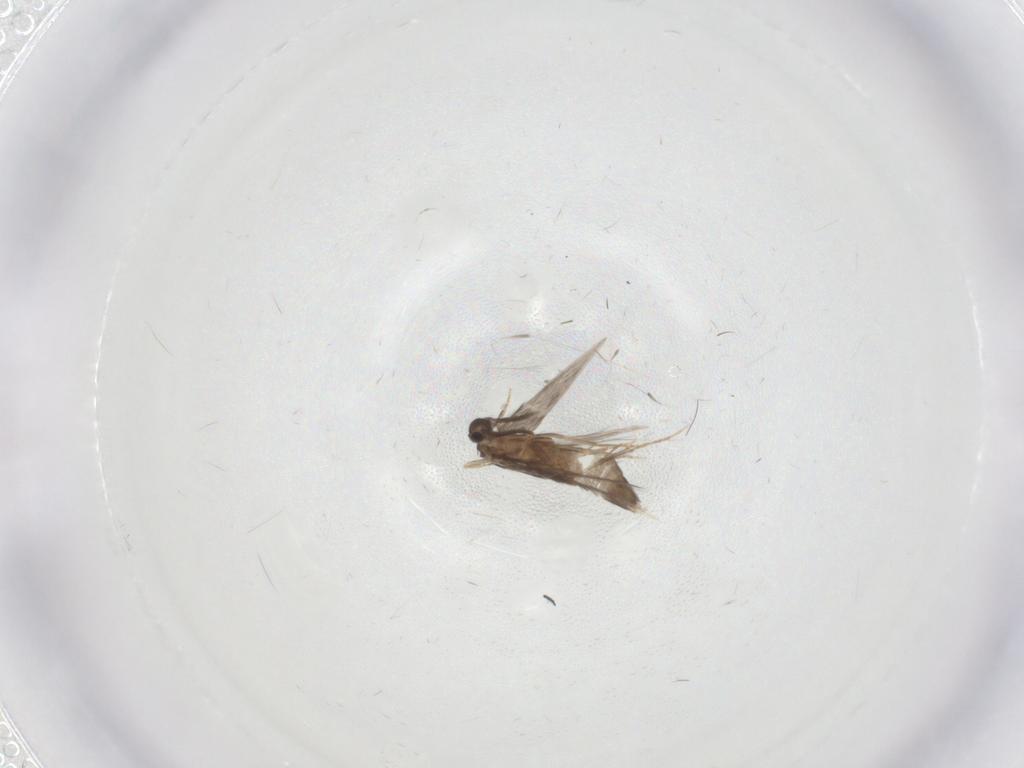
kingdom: Animalia
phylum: Arthropoda
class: Insecta
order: Trichoptera
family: Hydroptilidae
